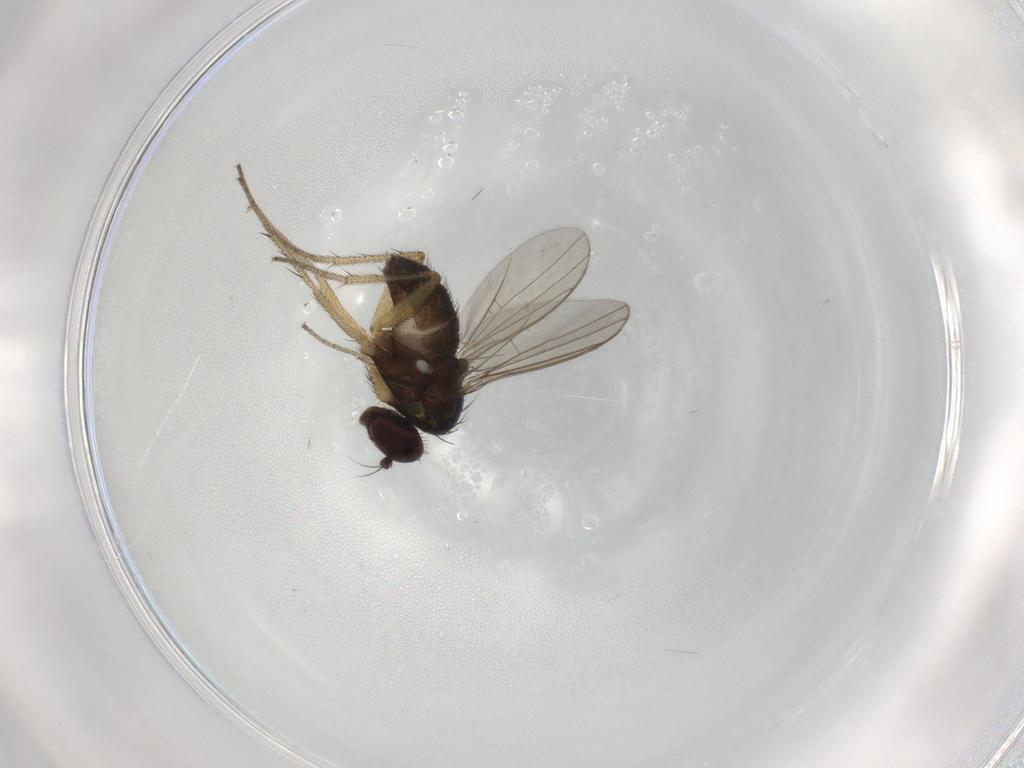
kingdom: Animalia
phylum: Arthropoda
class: Insecta
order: Diptera
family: Dolichopodidae
